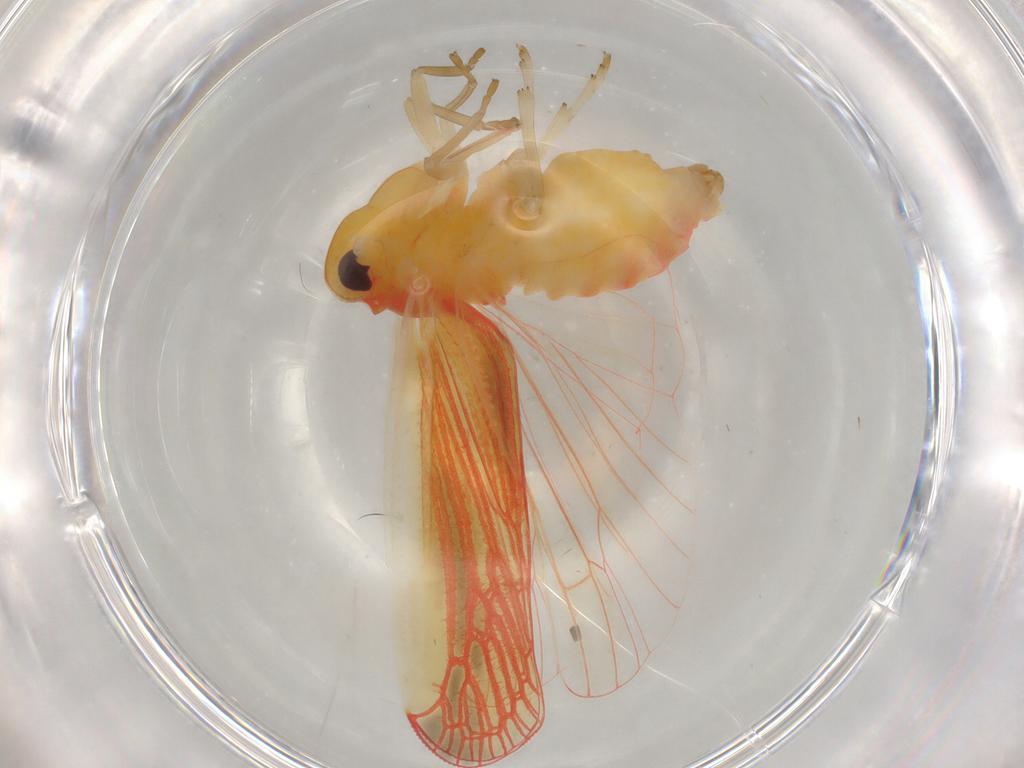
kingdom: Animalia
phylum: Arthropoda
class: Insecta
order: Hemiptera
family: Derbidae
